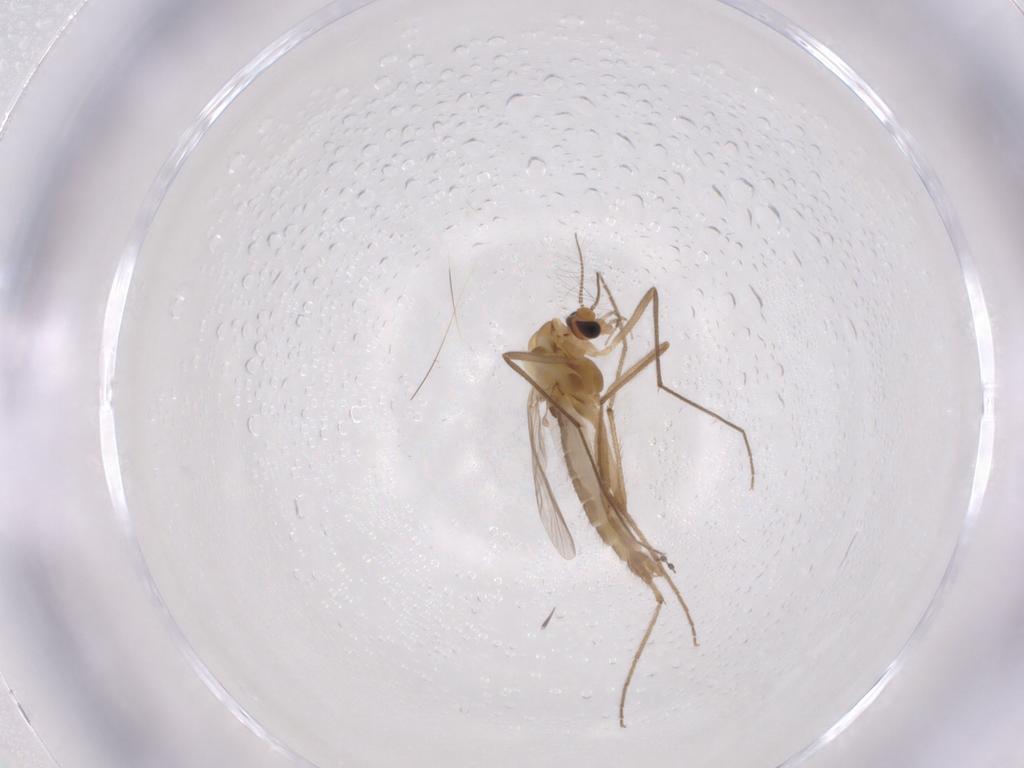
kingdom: Animalia
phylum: Arthropoda
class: Insecta
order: Diptera
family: Chironomidae
